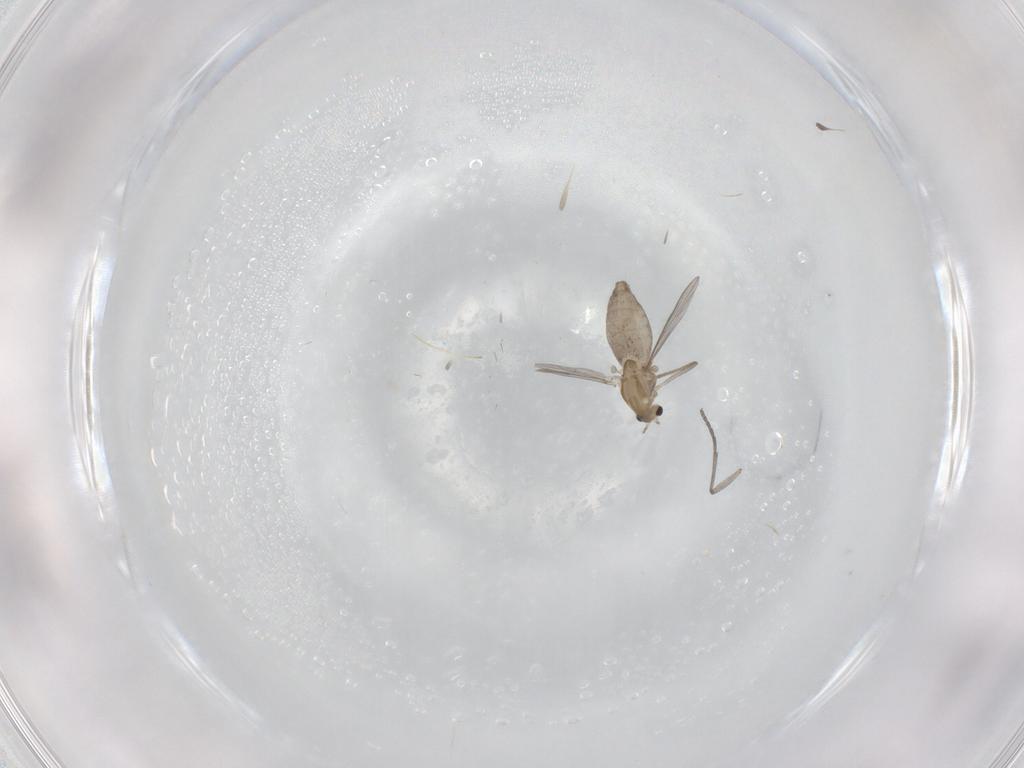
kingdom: Animalia
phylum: Arthropoda
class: Insecta
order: Diptera
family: Chironomidae
